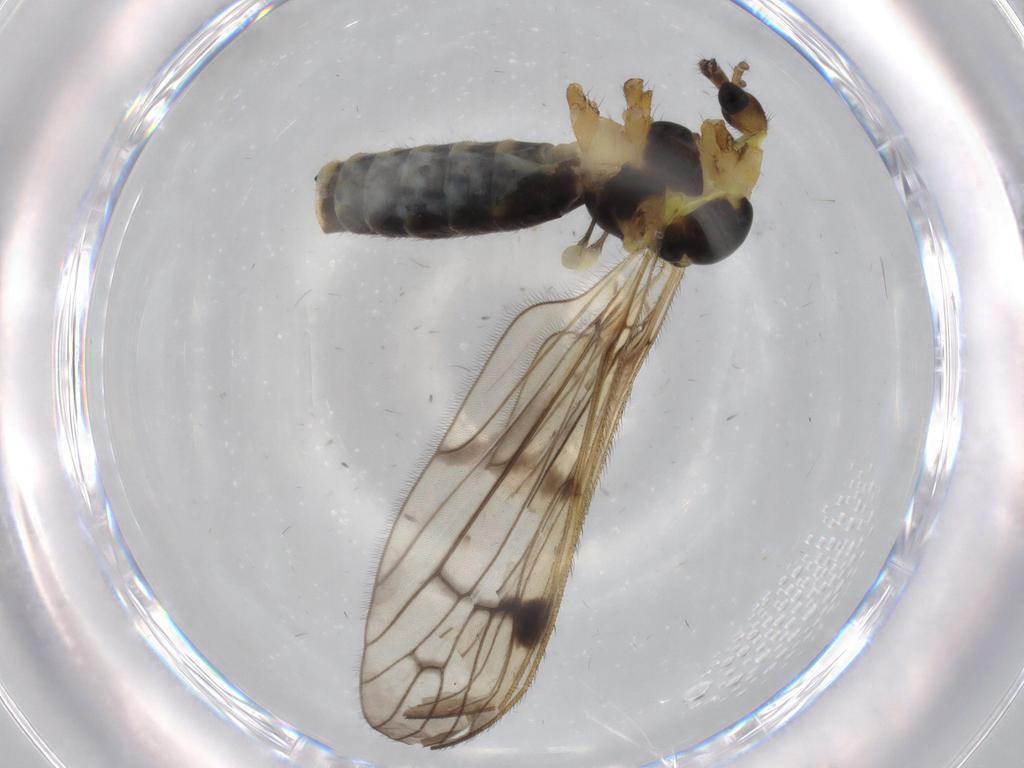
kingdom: Animalia
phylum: Arthropoda
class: Insecta
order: Diptera
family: Limoniidae
